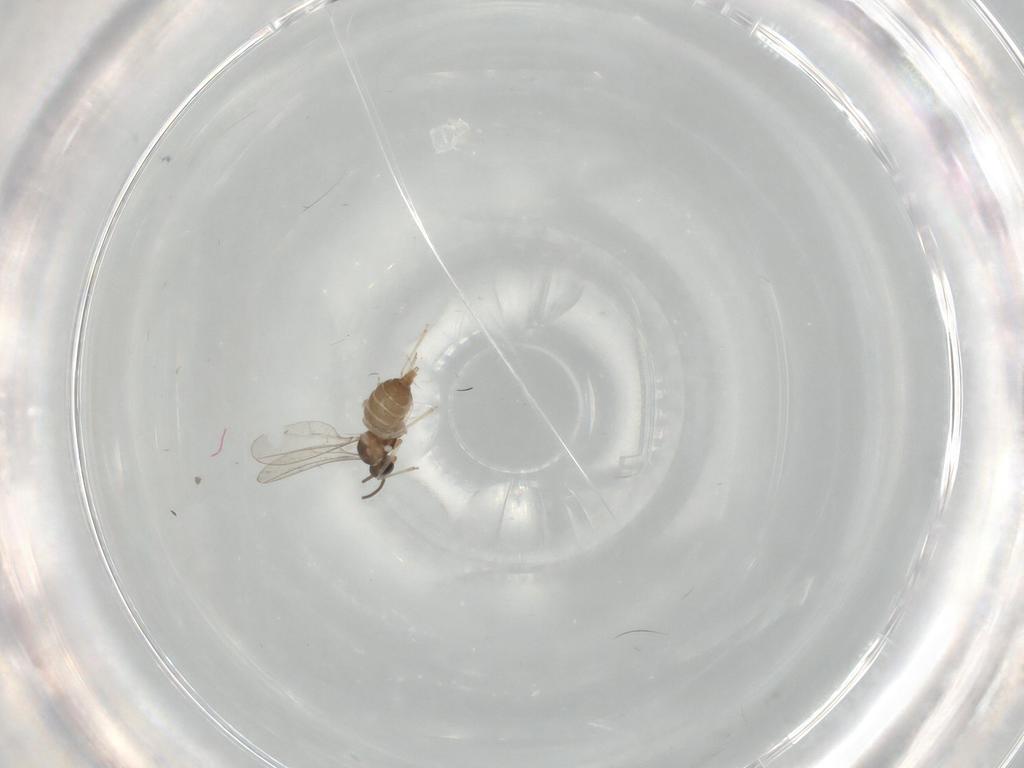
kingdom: Animalia
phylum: Arthropoda
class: Insecta
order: Diptera
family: Cecidomyiidae
